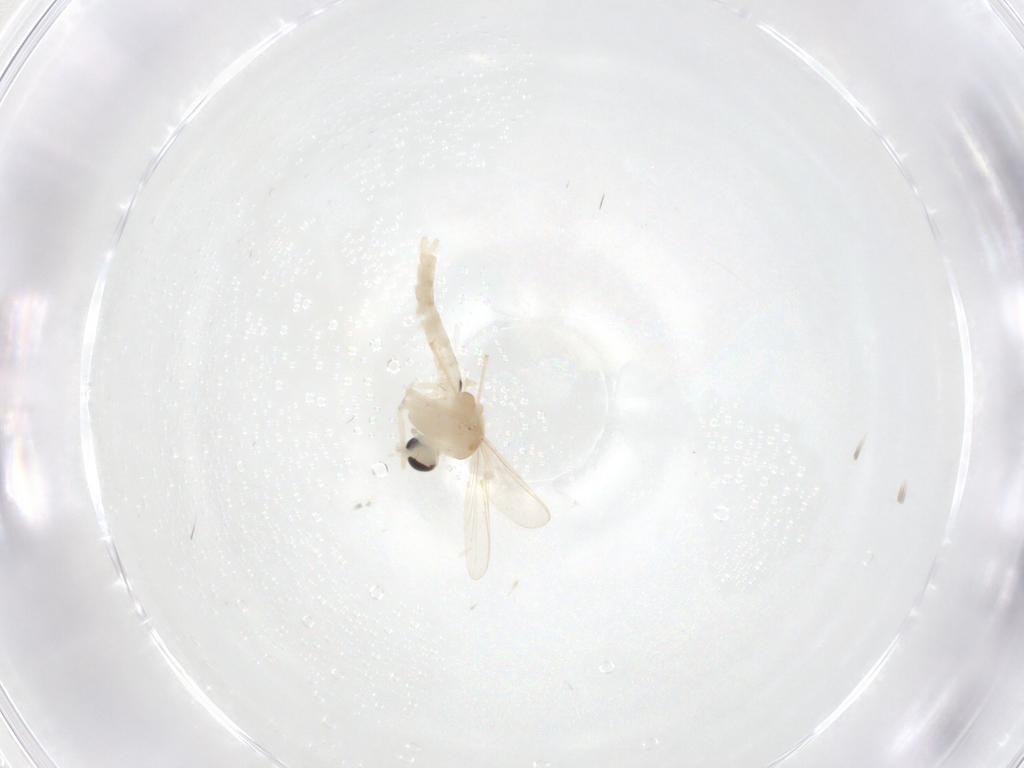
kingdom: Animalia
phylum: Arthropoda
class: Insecta
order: Diptera
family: Chironomidae
